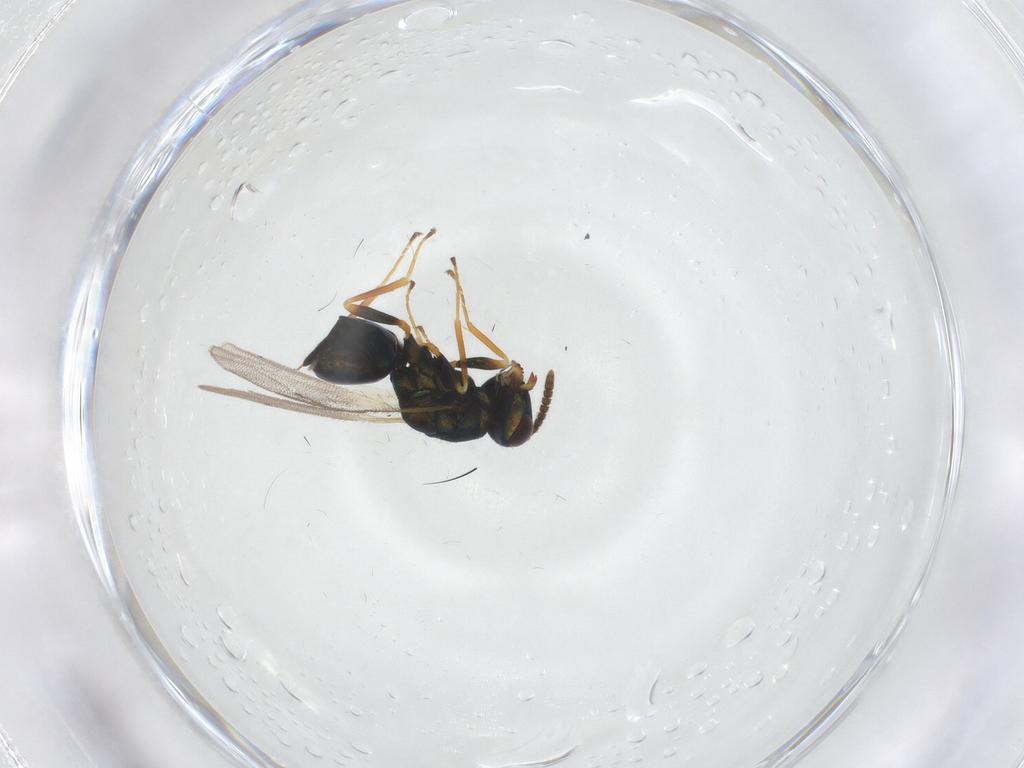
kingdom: Animalia
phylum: Arthropoda
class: Insecta
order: Hymenoptera
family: Pteromalidae
